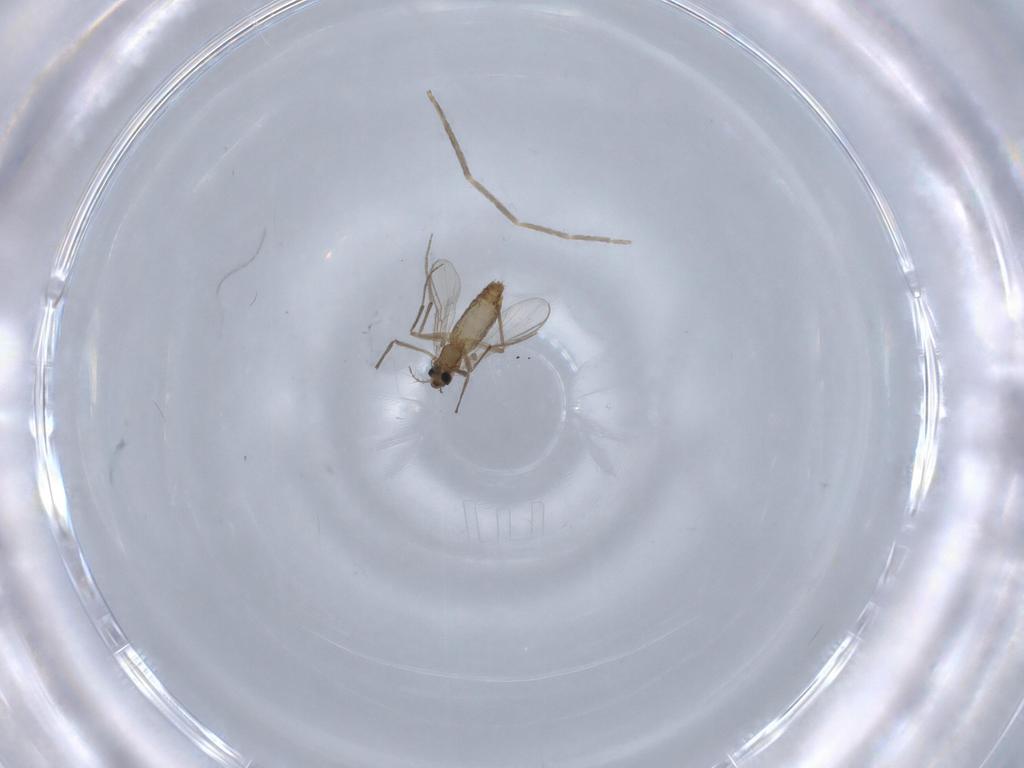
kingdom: Animalia
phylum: Arthropoda
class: Insecta
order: Diptera
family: Chironomidae
